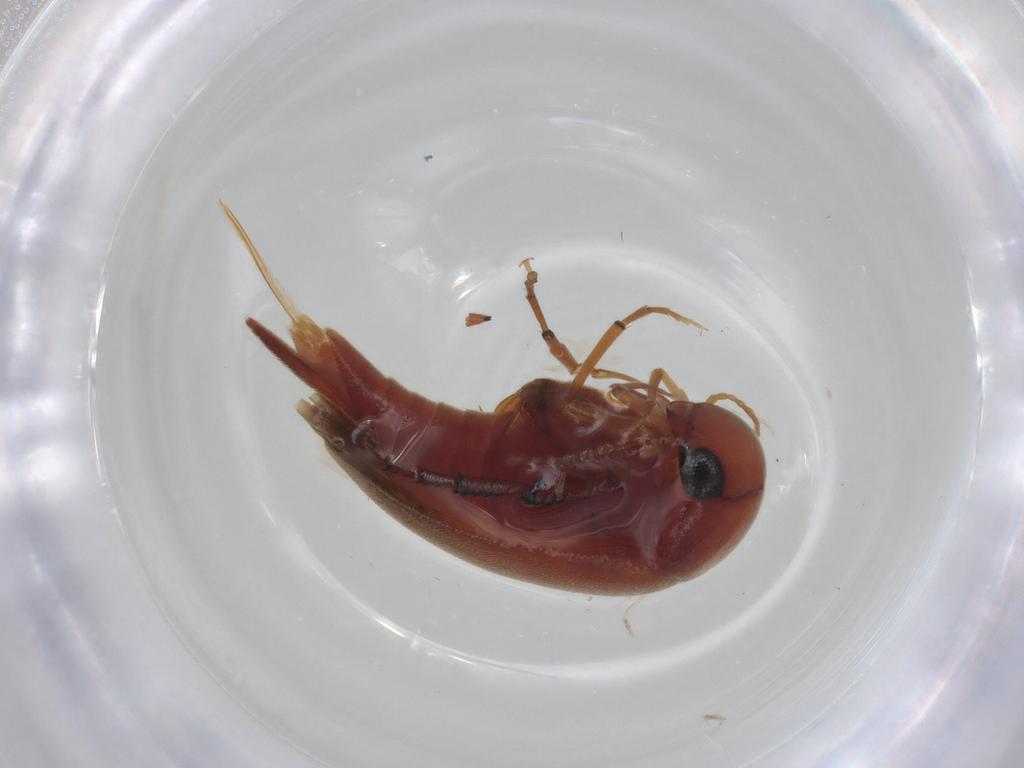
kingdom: Animalia
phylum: Arthropoda
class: Insecta
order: Coleoptera
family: Mordellidae
